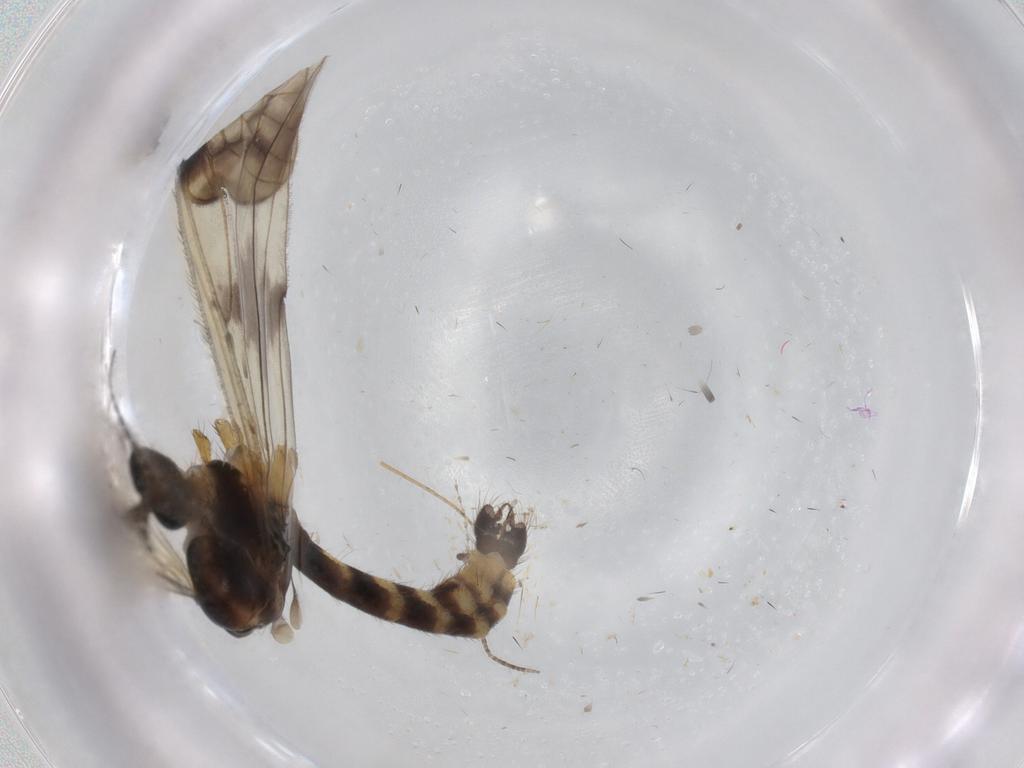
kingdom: Animalia
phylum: Arthropoda
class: Insecta
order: Diptera
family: Limoniidae
